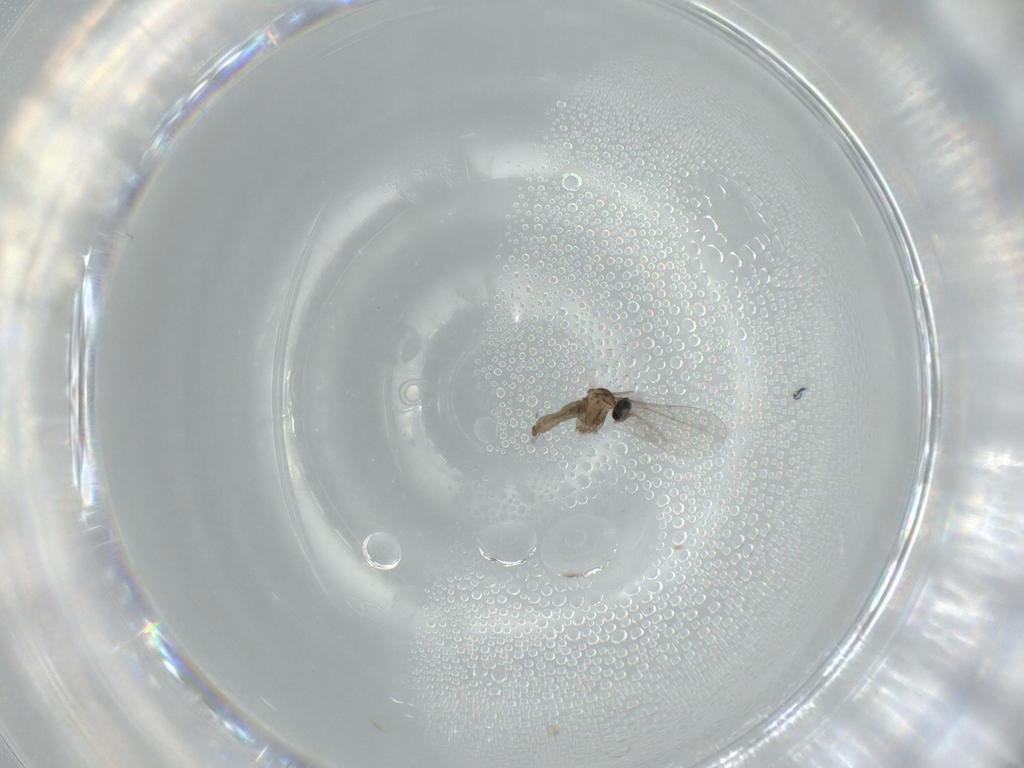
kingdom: Animalia
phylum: Arthropoda
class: Insecta
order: Diptera
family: Cecidomyiidae
